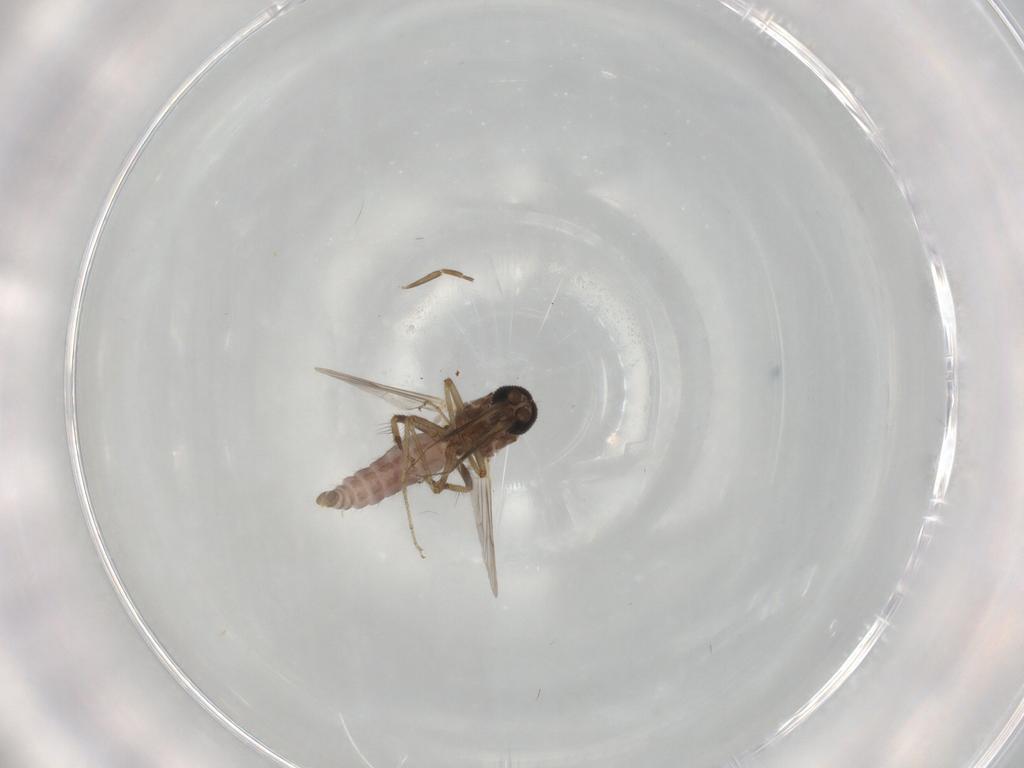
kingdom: Animalia
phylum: Arthropoda
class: Insecta
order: Diptera
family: Ceratopogonidae
